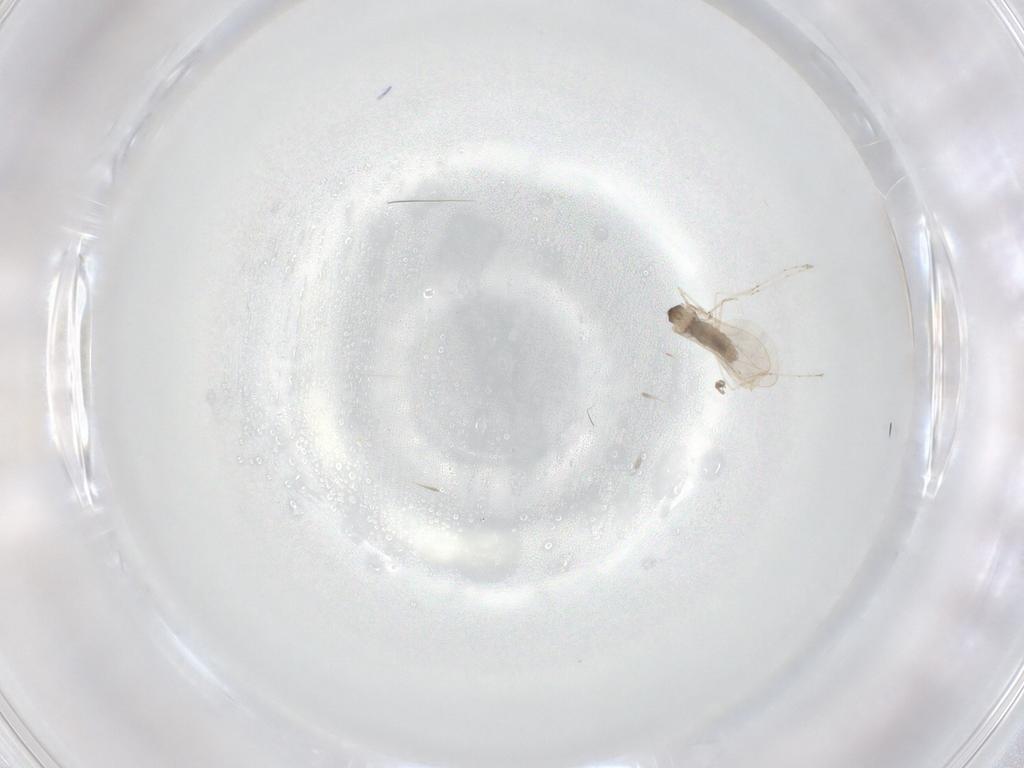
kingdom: Animalia
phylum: Arthropoda
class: Insecta
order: Diptera
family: Cecidomyiidae
